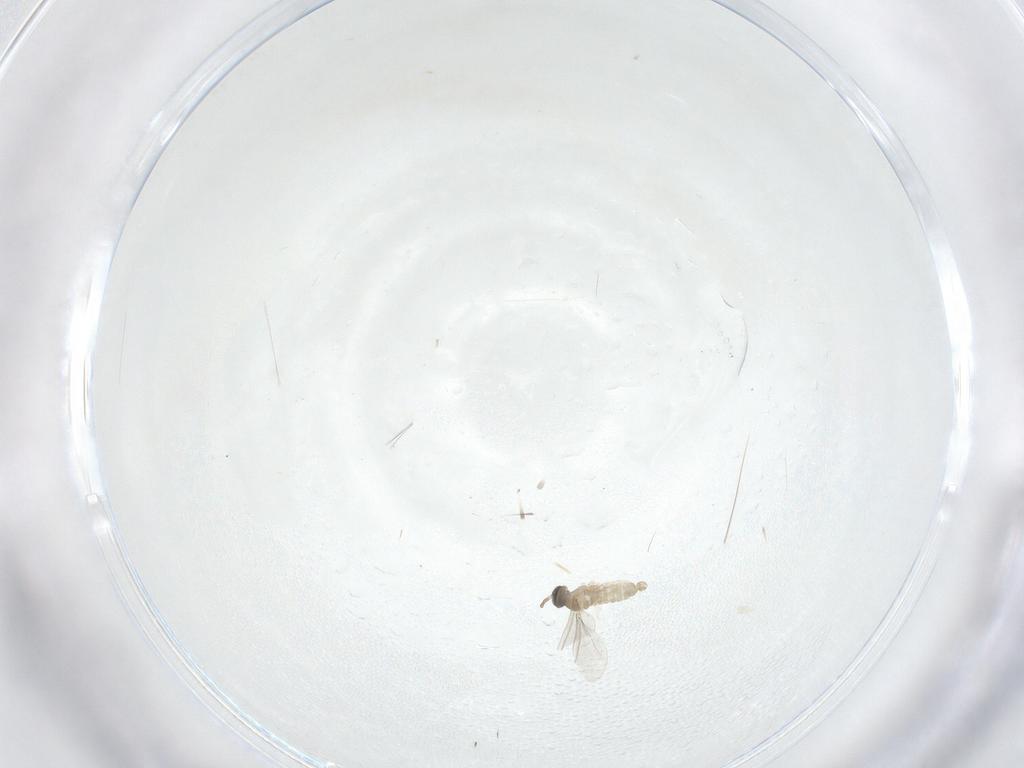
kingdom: Animalia
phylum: Arthropoda
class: Insecta
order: Diptera
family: Cecidomyiidae
